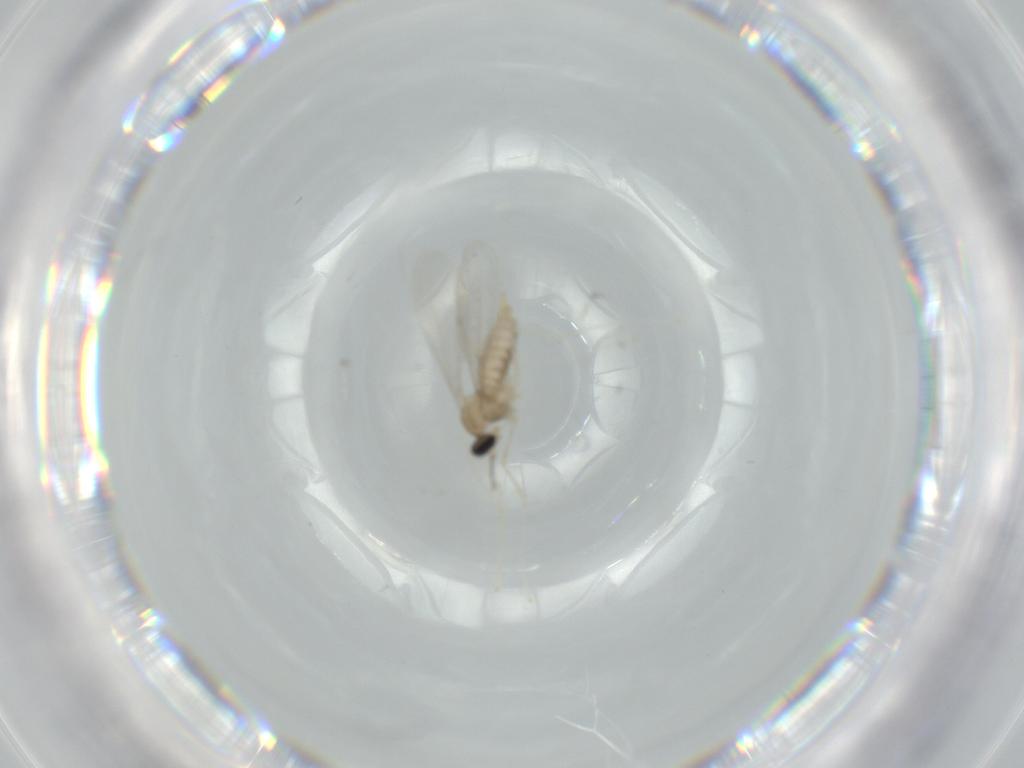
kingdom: Animalia
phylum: Arthropoda
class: Insecta
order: Diptera
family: Cecidomyiidae
